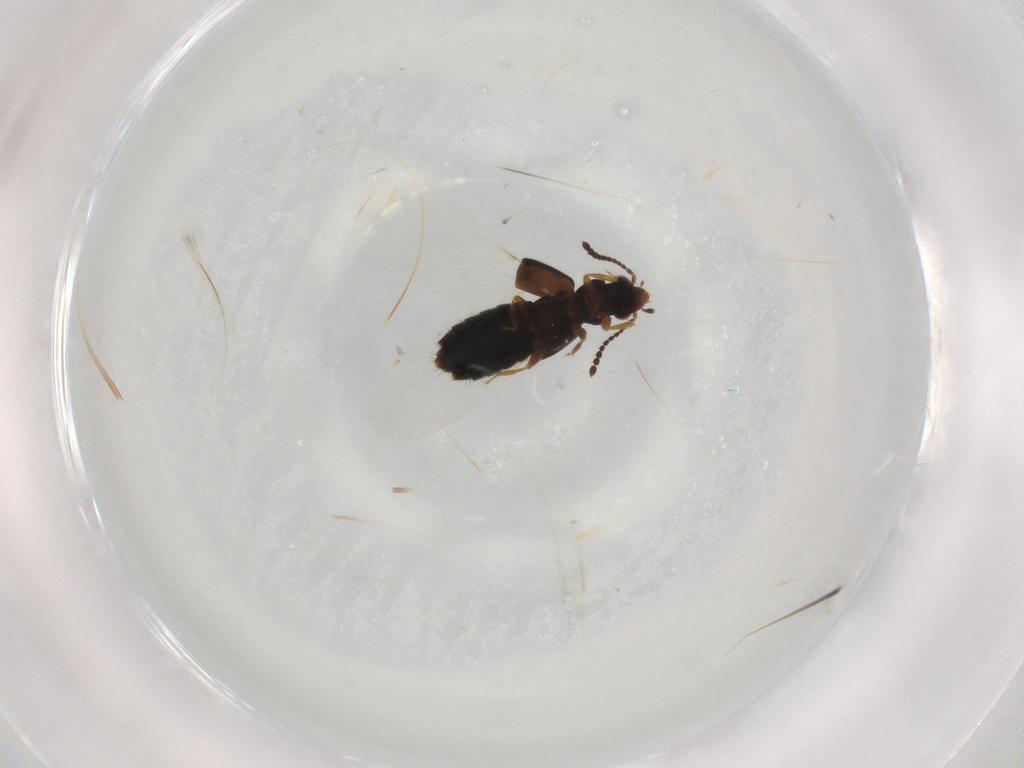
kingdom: Animalia
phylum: Arthropoda
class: Insecta
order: Coleoptera
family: Staphylinidae
